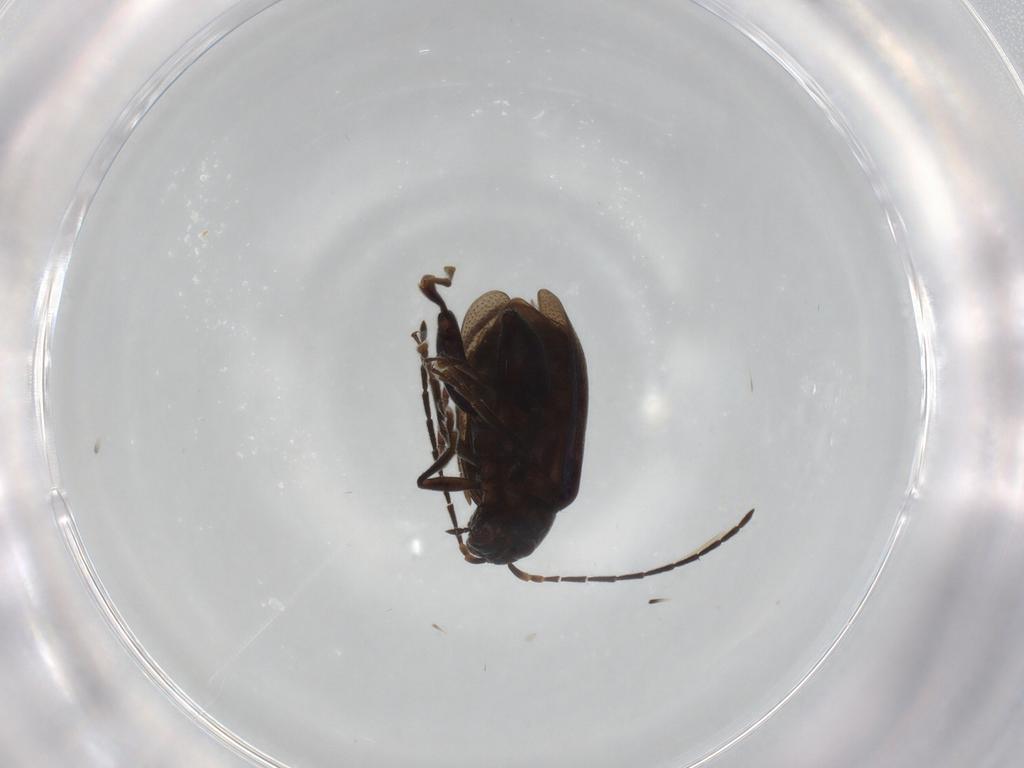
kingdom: Animalia
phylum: Arthropoda
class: Insecta
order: Coleoptera
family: Chrysomelidae
